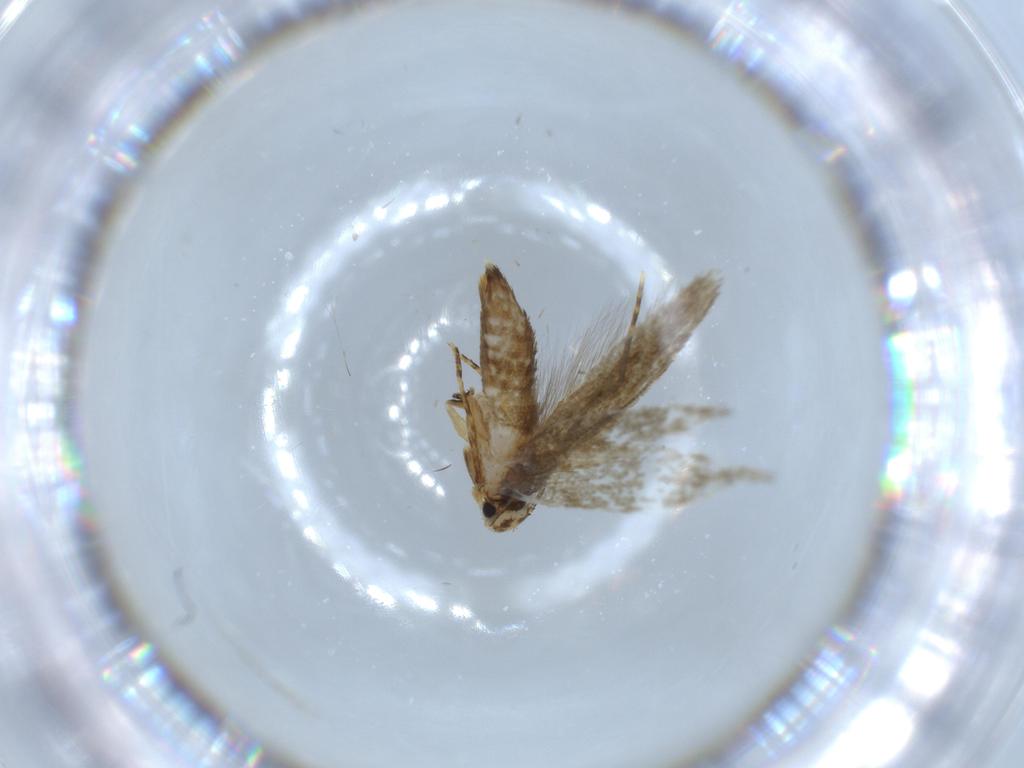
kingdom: Animalia
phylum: Arthropoda
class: Insecta
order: Lepidoptera
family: Tineidae
